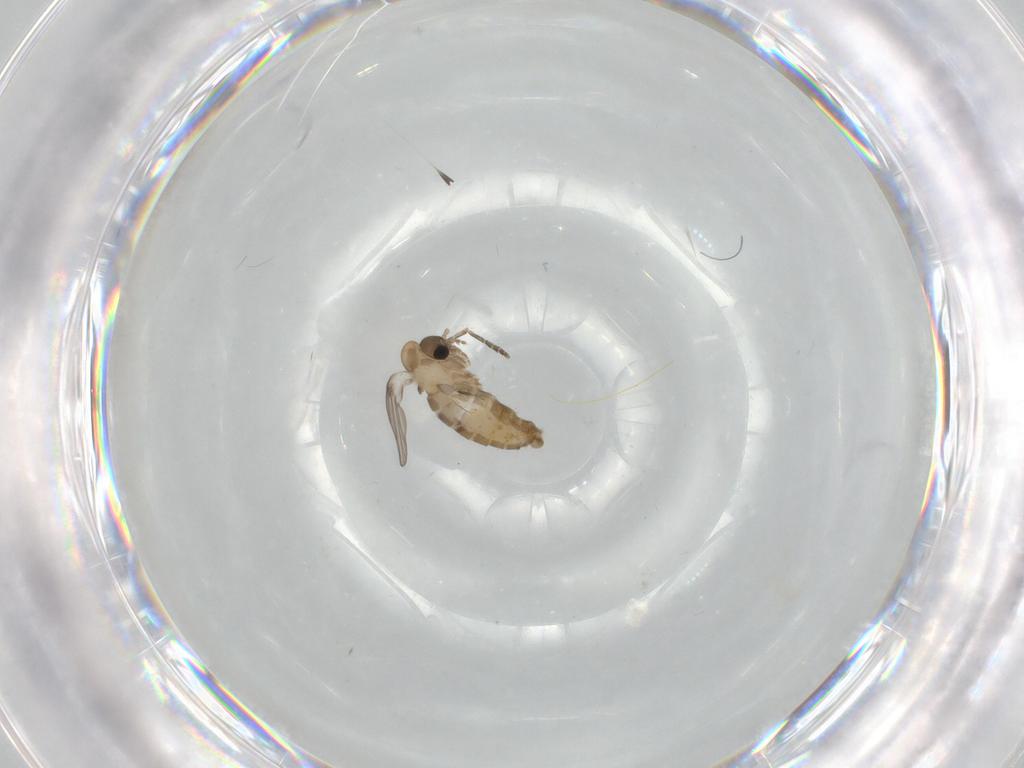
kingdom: Animalia
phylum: Arthropoda
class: Insecta
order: Diptera
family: Psychodidae
